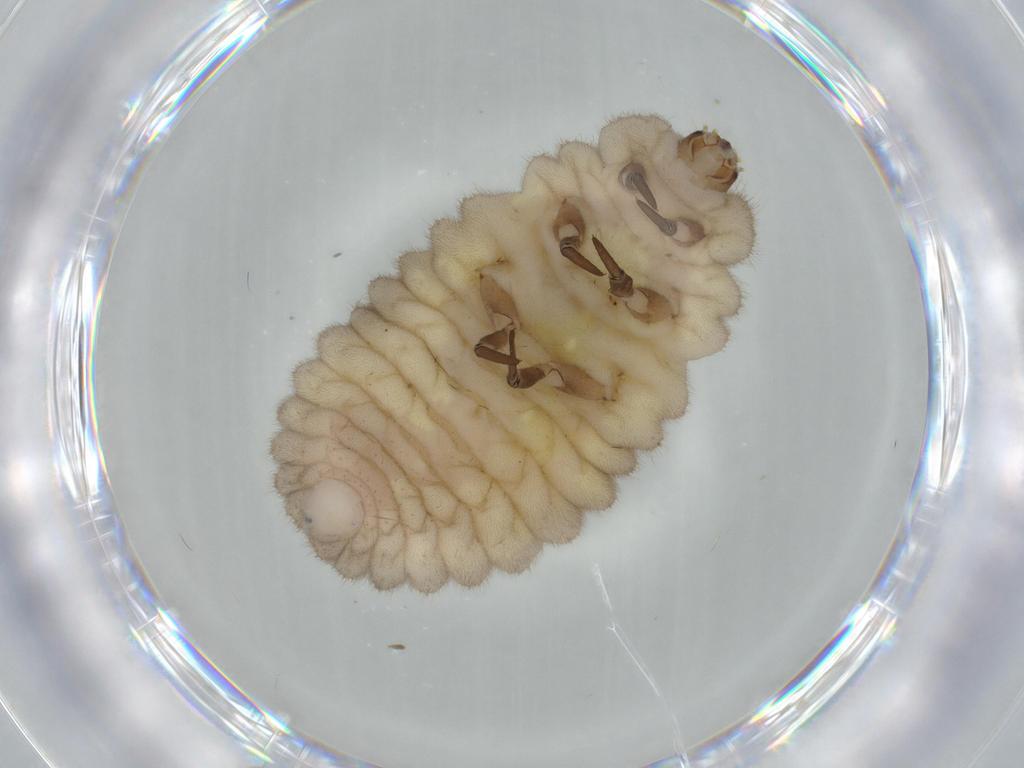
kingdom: Animalia
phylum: Arthropoda
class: Insecta
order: Coleoptera
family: Coccinellidae
